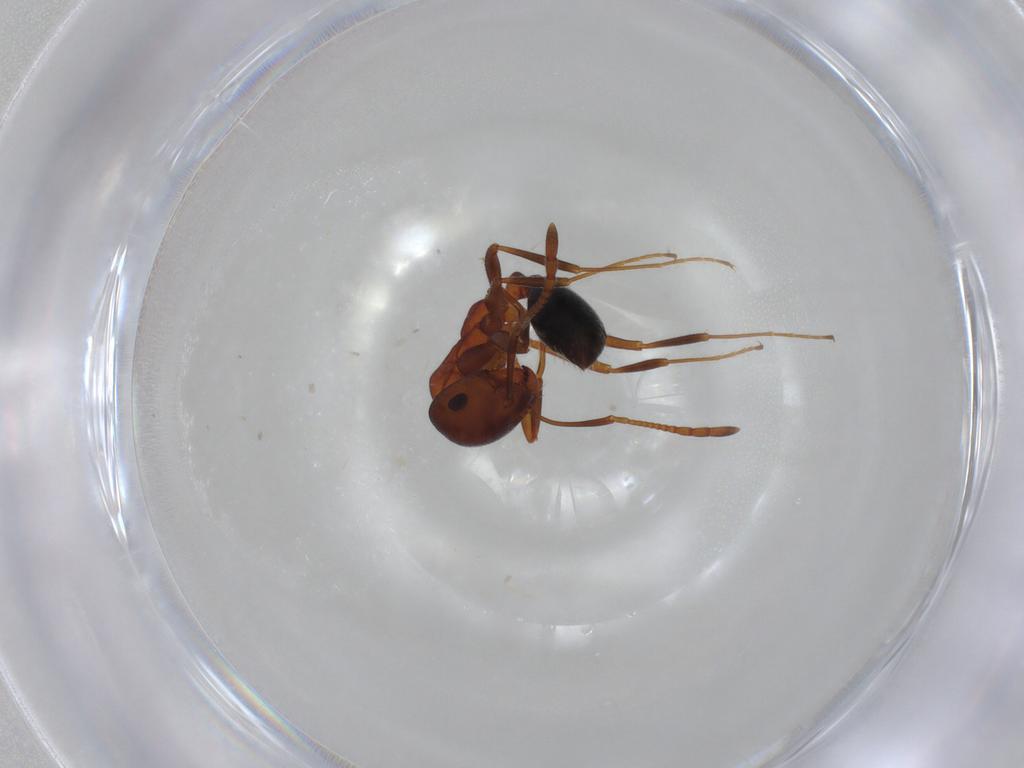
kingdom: Animalia
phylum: Arthropoda
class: Insecta
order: Hymenoptera
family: Formicidae
